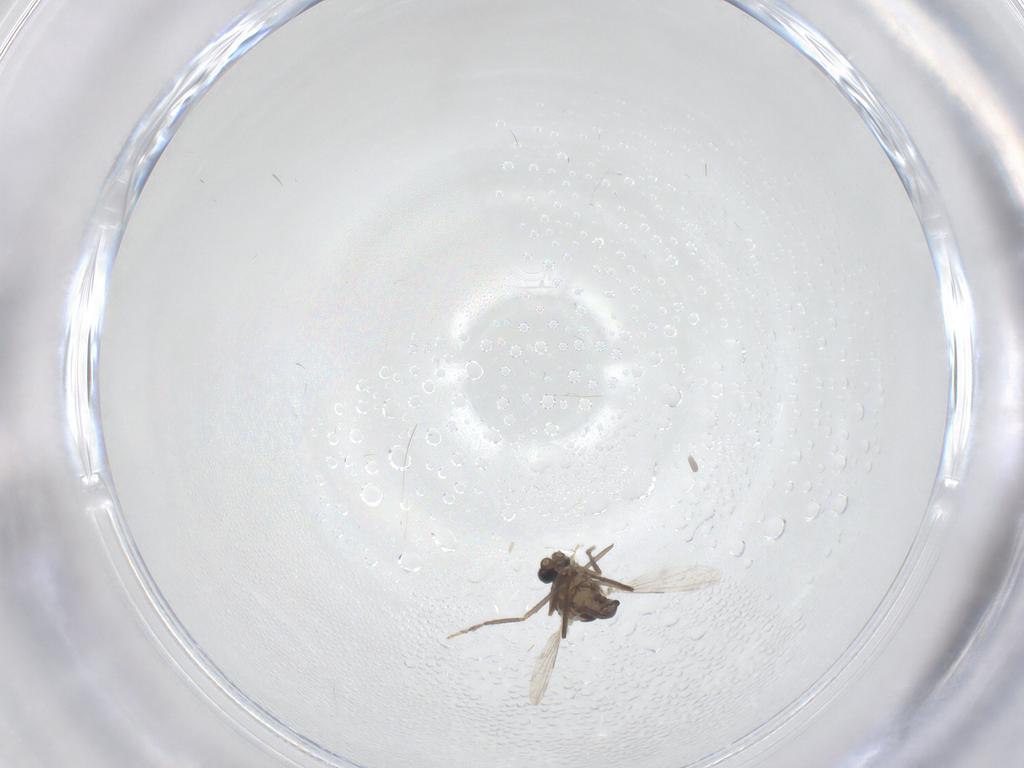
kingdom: Animalia
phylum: Arthropoda
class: Insecta
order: Diptera
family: Ceratopogonidae
